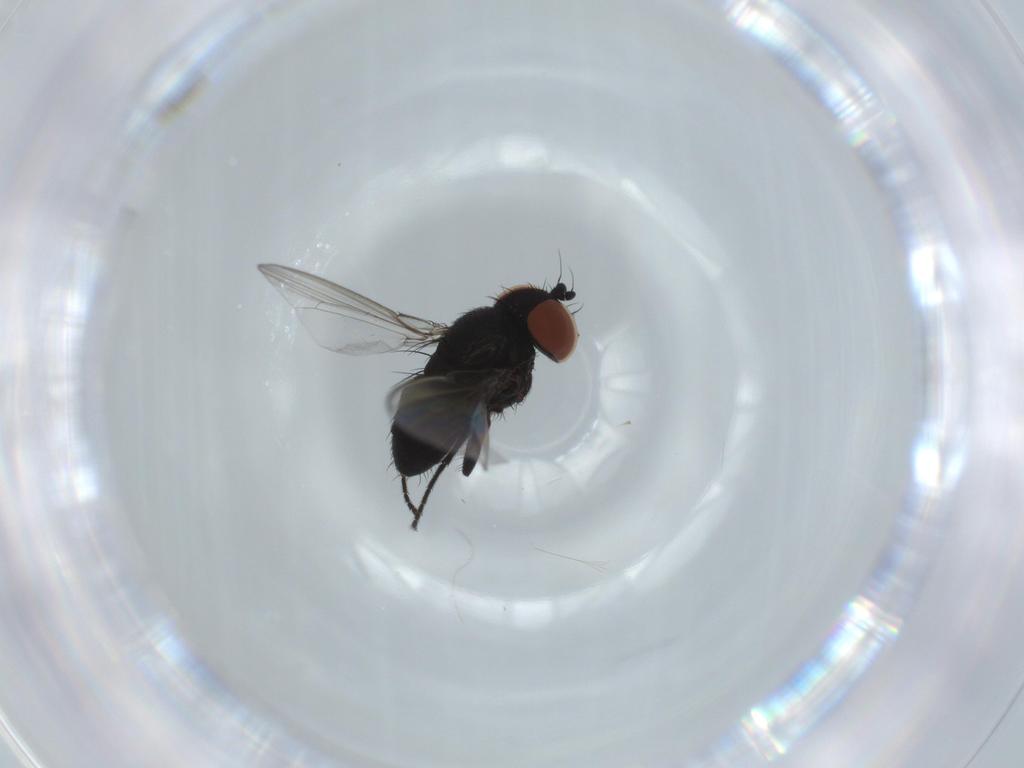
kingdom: Animalia
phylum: Arthropoda
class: Insecta
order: Diptera
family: Milichiidae
